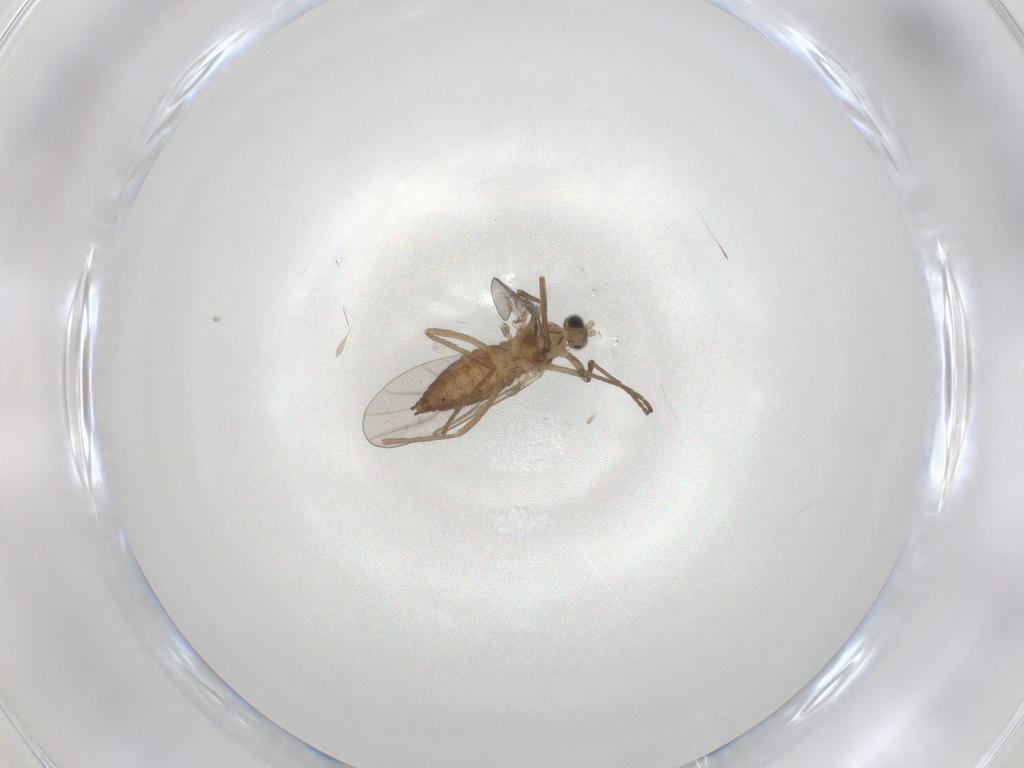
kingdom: Animalia
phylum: Arthropoda
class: Insecta
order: Diptera
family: Cecidomyiidae
